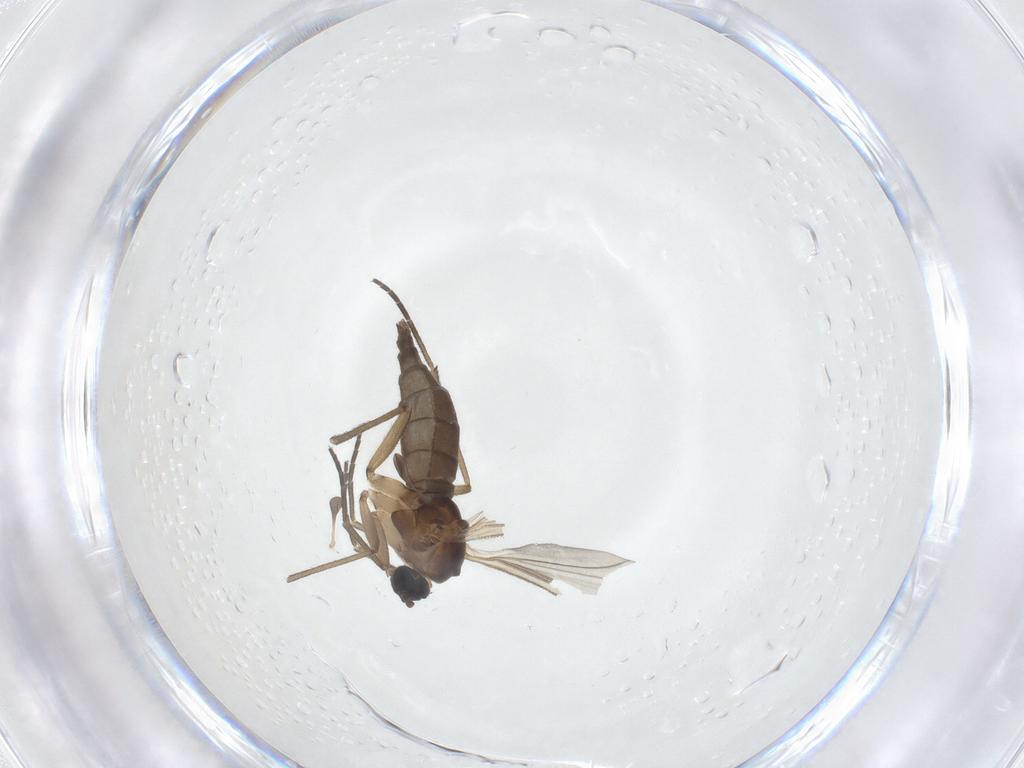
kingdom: Animalia
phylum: Arthropoda
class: Insecta
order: Diptera
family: Sciaridae
